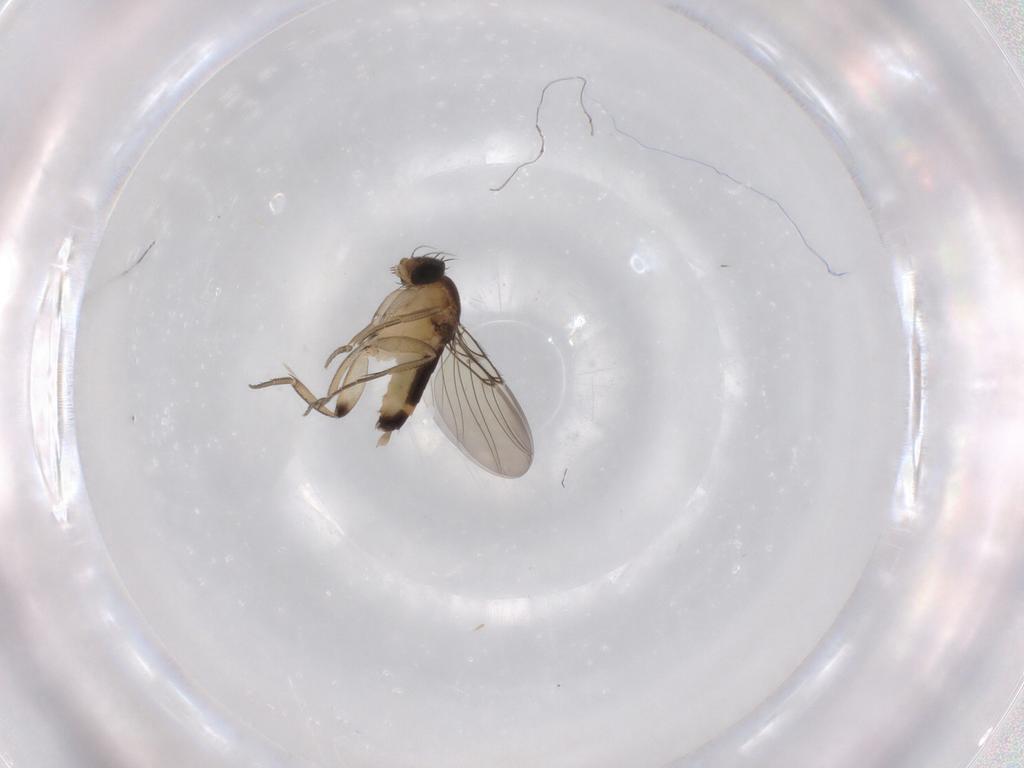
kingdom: Animalia
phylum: Arthropoda
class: Insecta
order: Diptera
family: Phoridae
